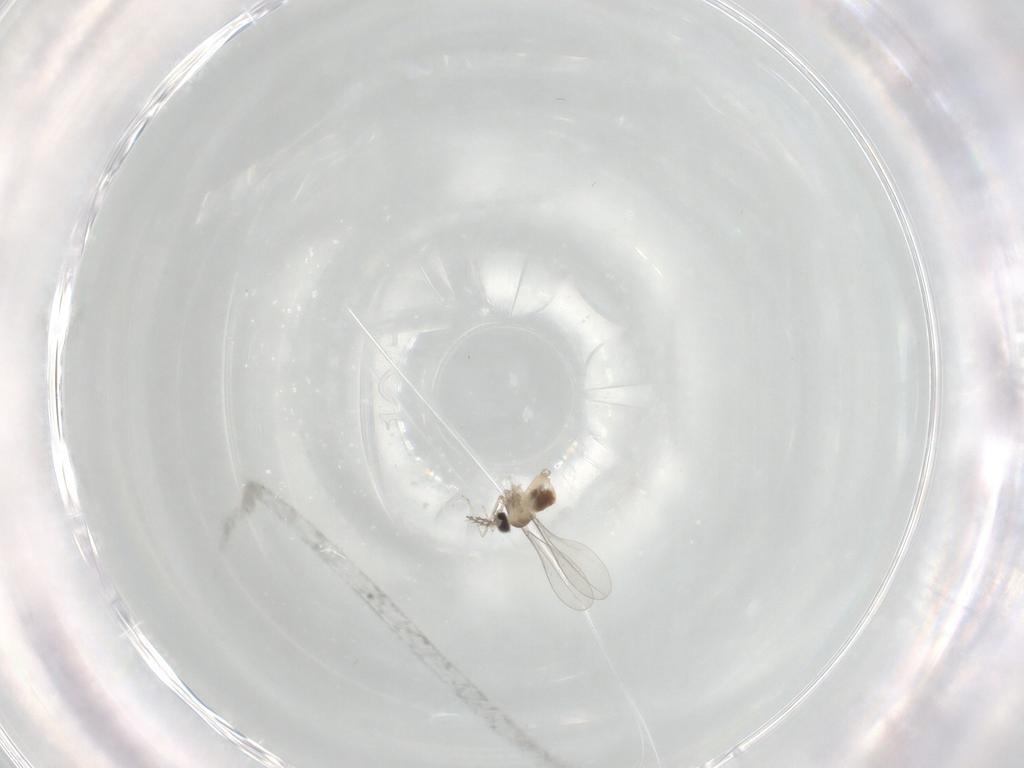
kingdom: Animalia
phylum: Arthropoda
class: Insecta
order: Diptera
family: Cecidomyiidae
